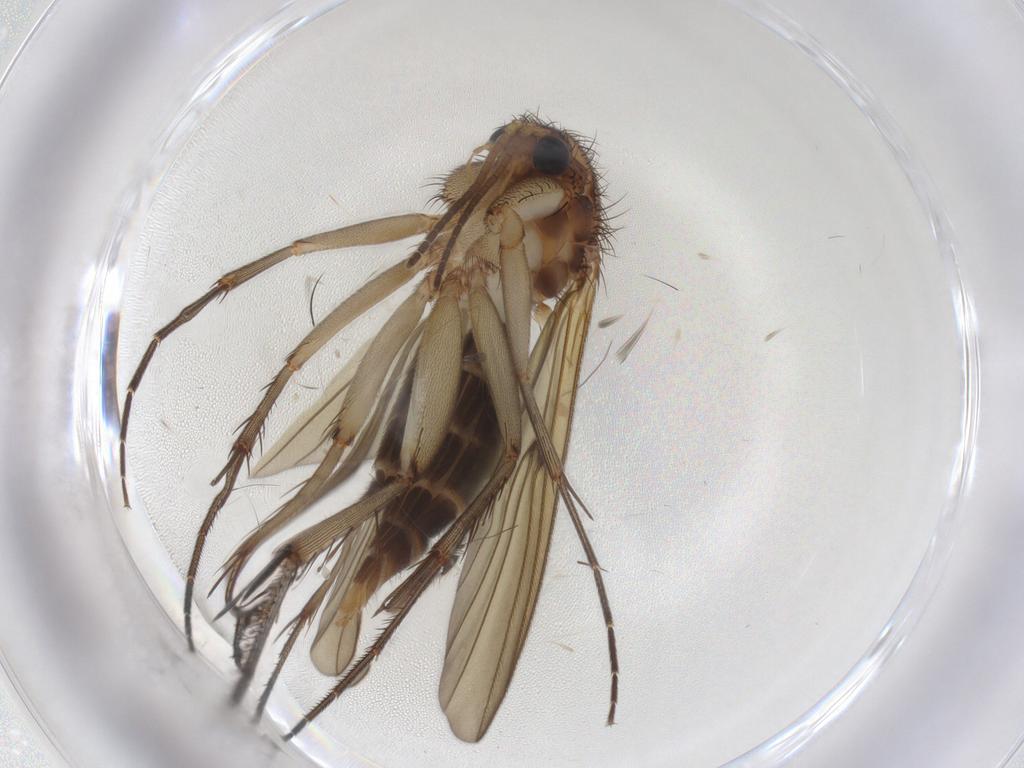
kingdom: Animalia
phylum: Arthropoda
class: Insecta
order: Diptera
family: Mycetophilidae
